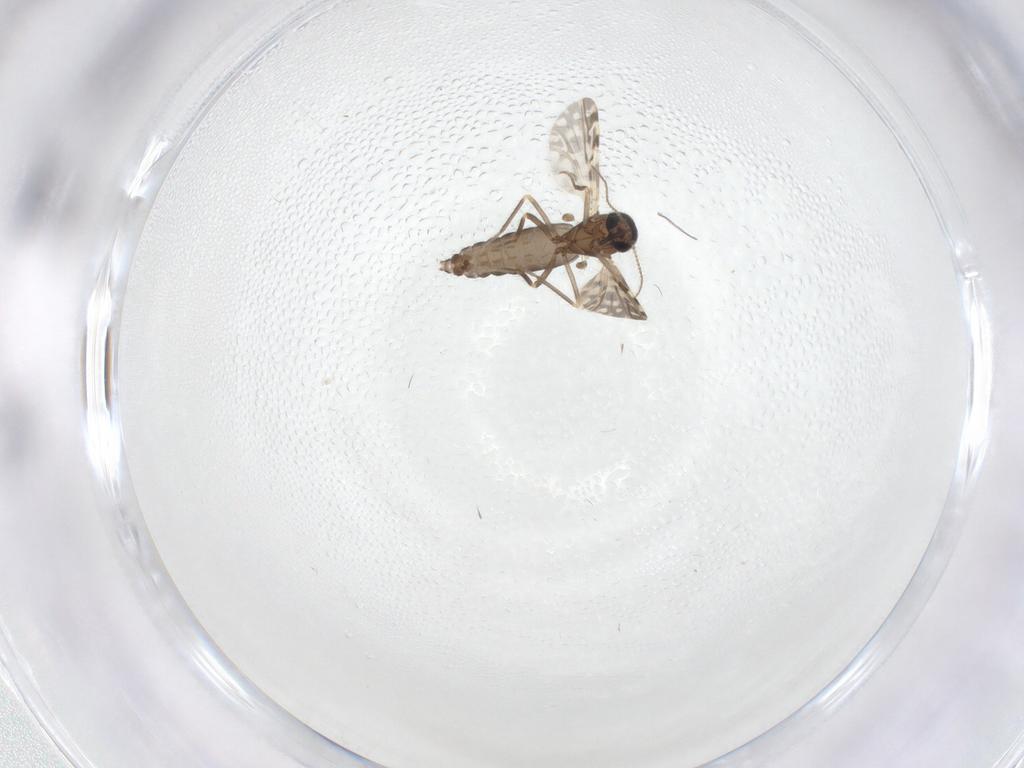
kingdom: Animalia
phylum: Arthropoda
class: Insecta
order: Diptera
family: Ceratopogonidae
